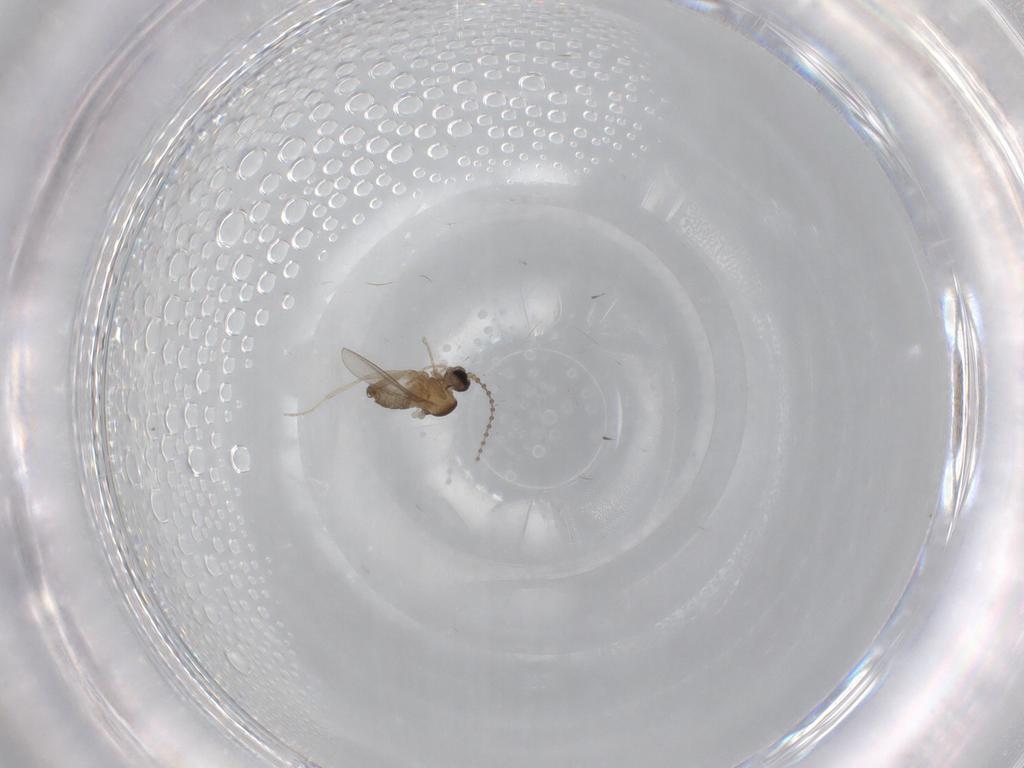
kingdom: Animalia
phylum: Arthropoda
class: Insecta
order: Diptera
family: Cecidomyiidae
